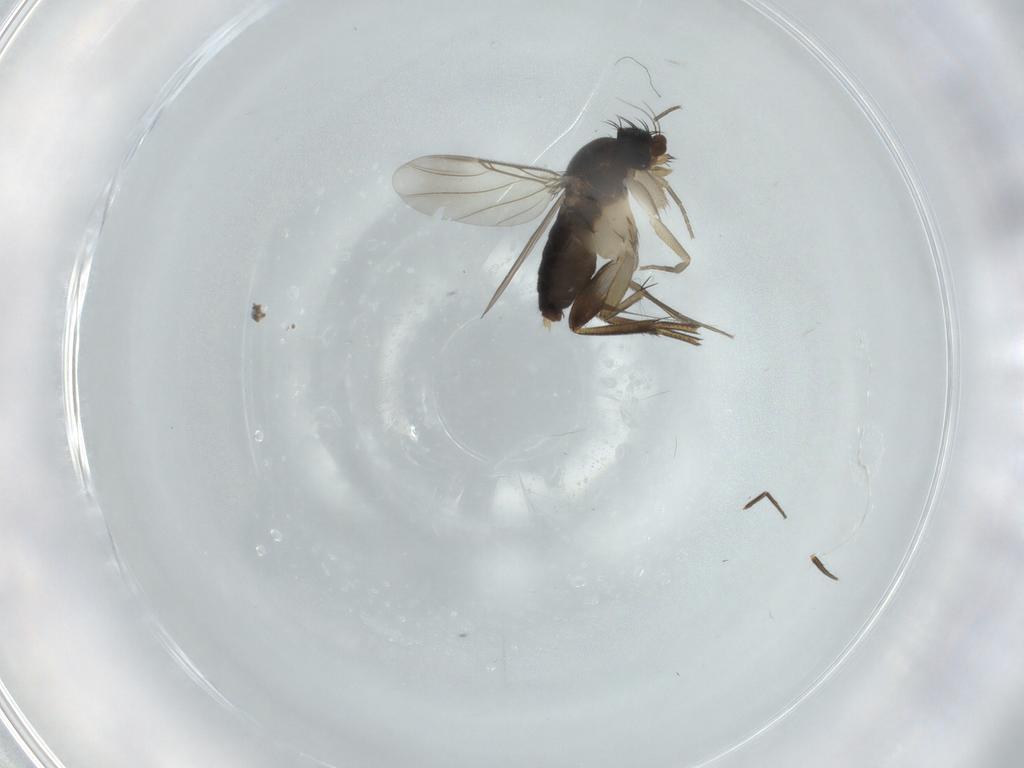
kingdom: Animalia
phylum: Arthropoda
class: Insecta
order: Diptera
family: Phoridae
